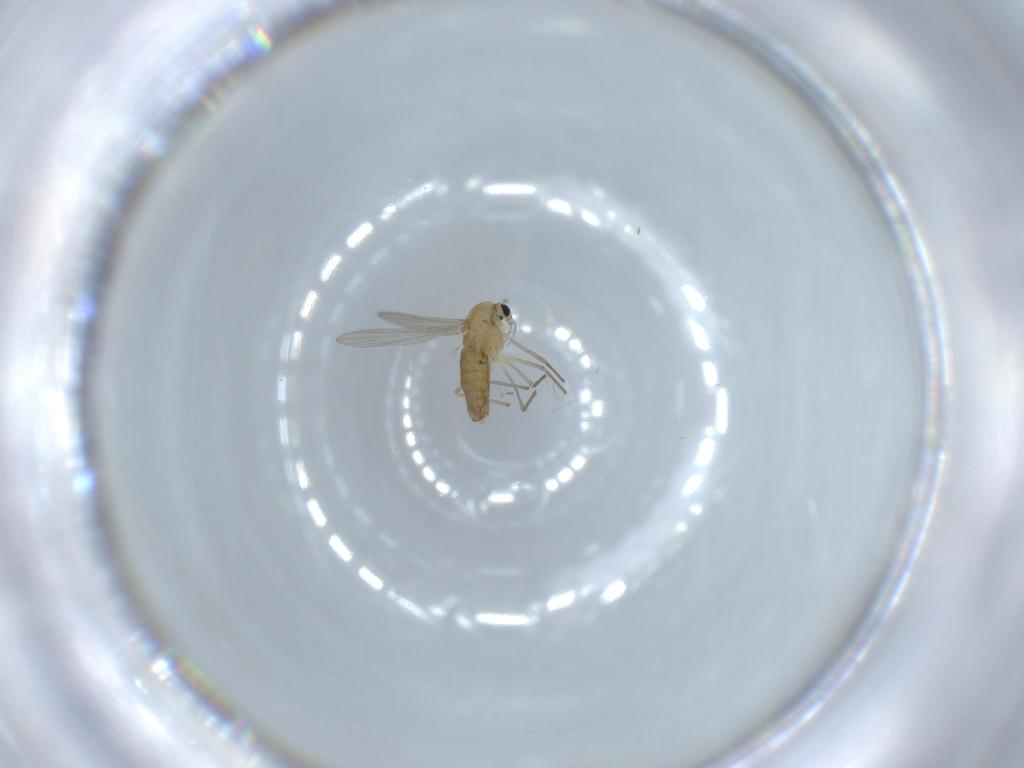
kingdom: Animalia
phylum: Arthropoda
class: Insecta
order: Diptera
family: Chironomidae
